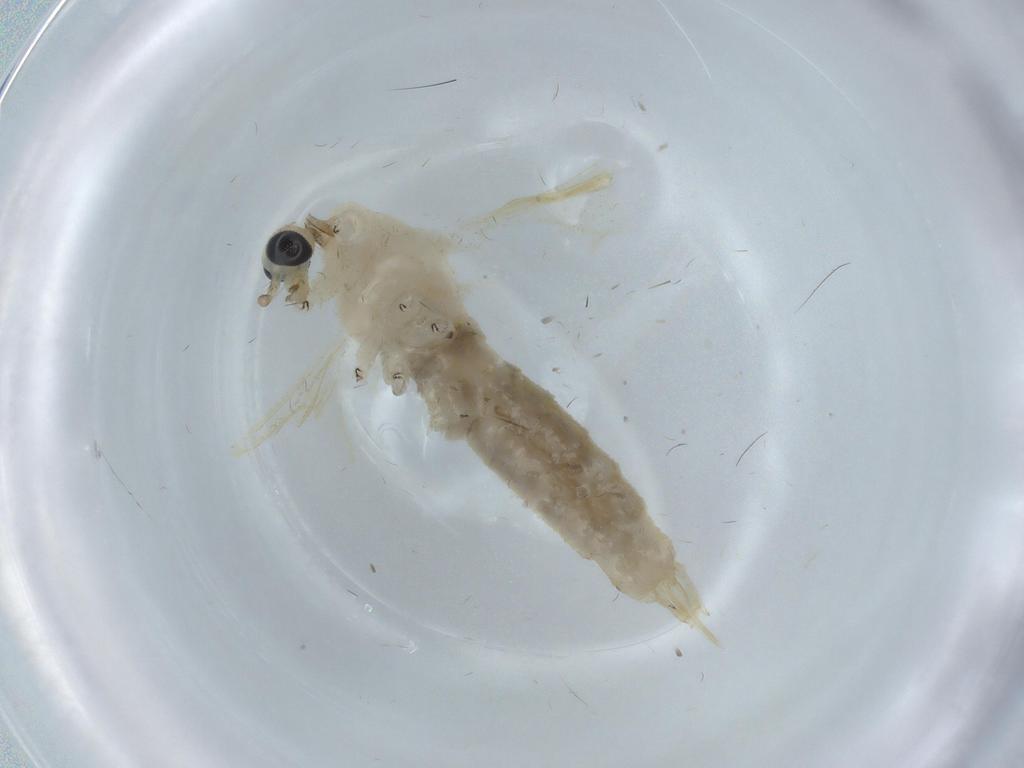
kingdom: Animalia
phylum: Arthropoda
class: Insecta
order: Diptera
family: Limoniidae
